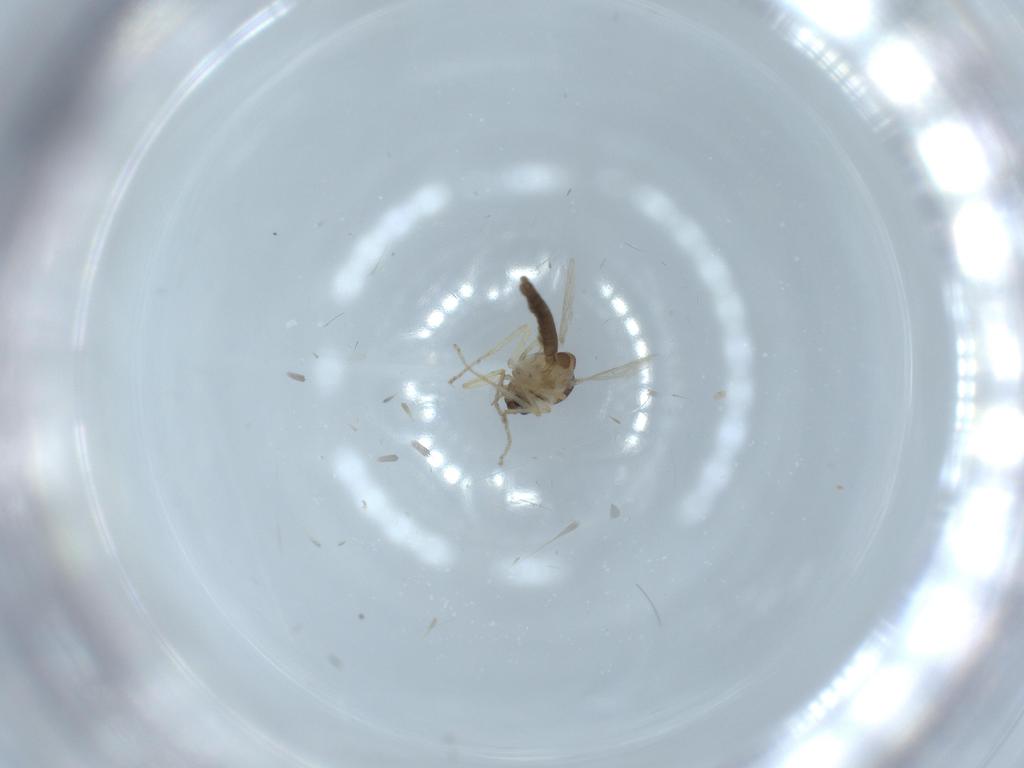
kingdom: Animalia
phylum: Arthropoda
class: Insecta
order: Diptera
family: Ceratopogonidae
